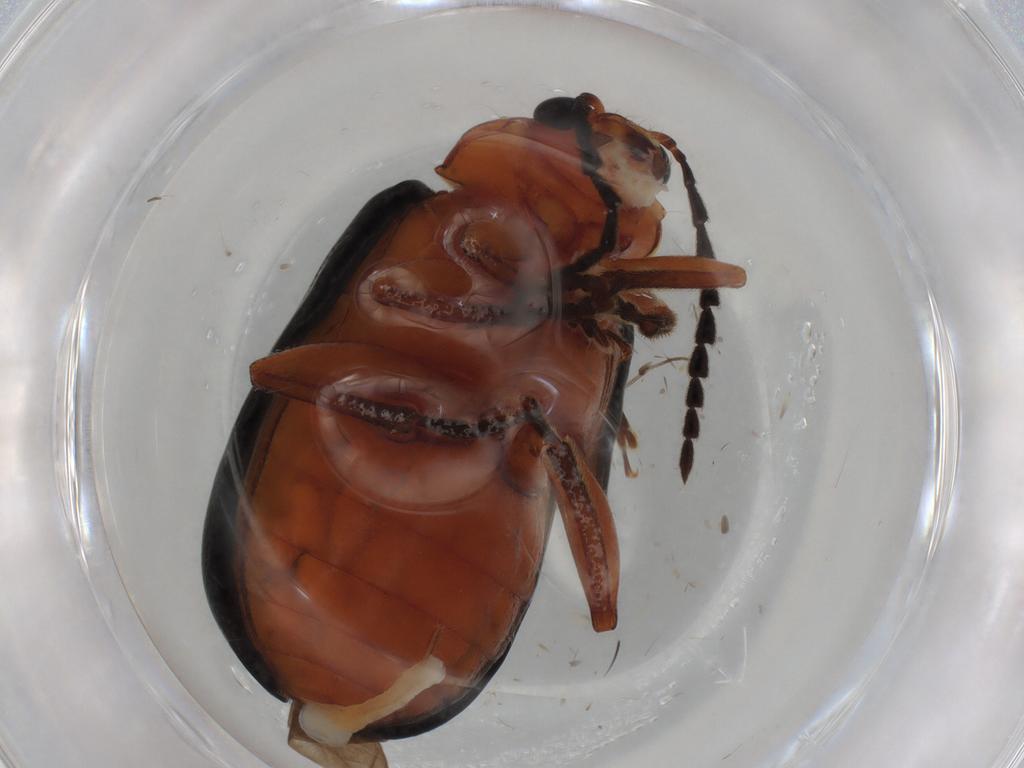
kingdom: Animalia
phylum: Arthropoda
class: Insecta
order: Coleoptera
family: Chrysomelidae
